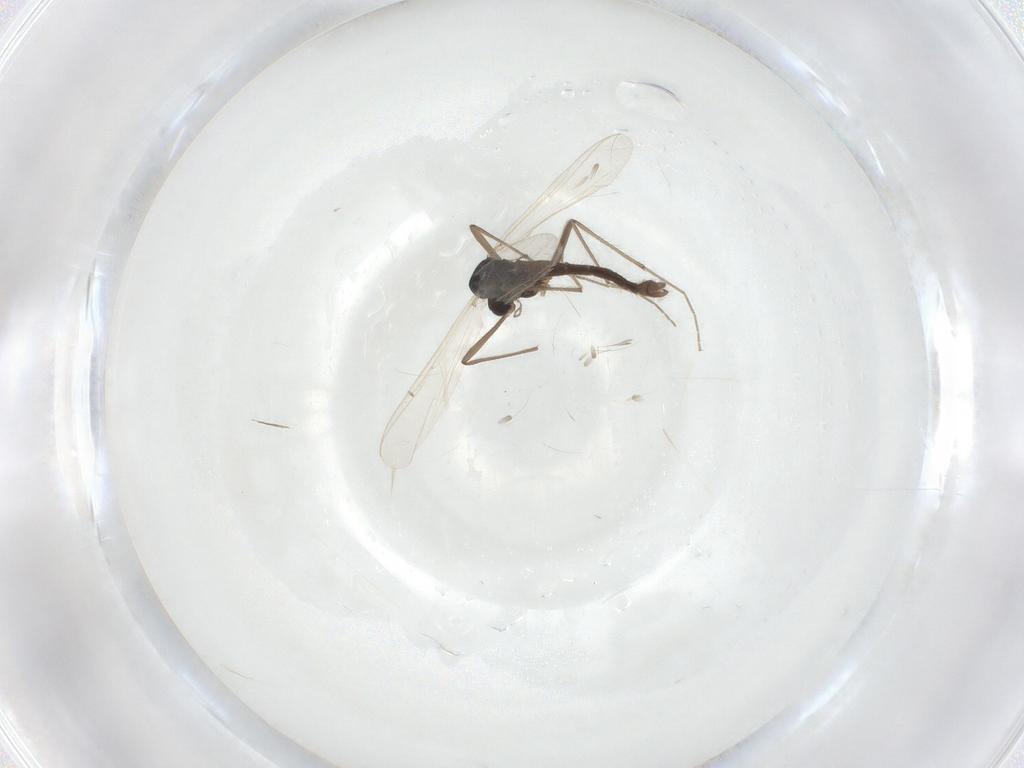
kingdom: Animalia
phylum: Arthropoda
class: Insecta
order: Diptera
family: Chironomidae
